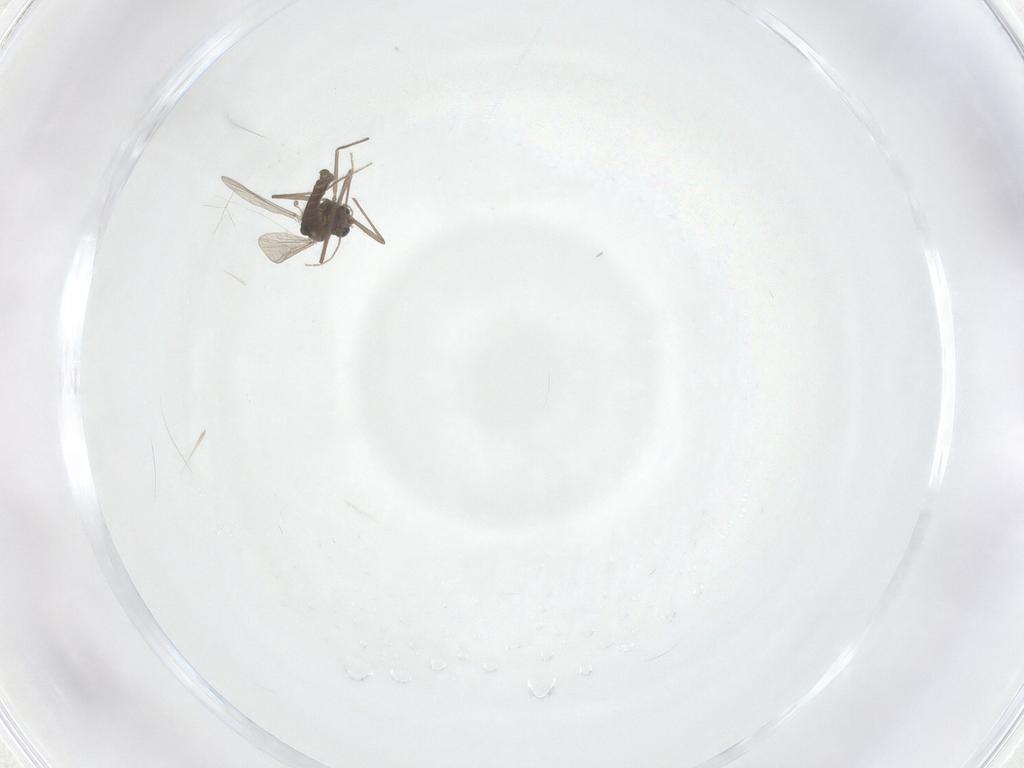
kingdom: Animalia
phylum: Arthropoda
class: Insecta
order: Diptera
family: Chironomidae
